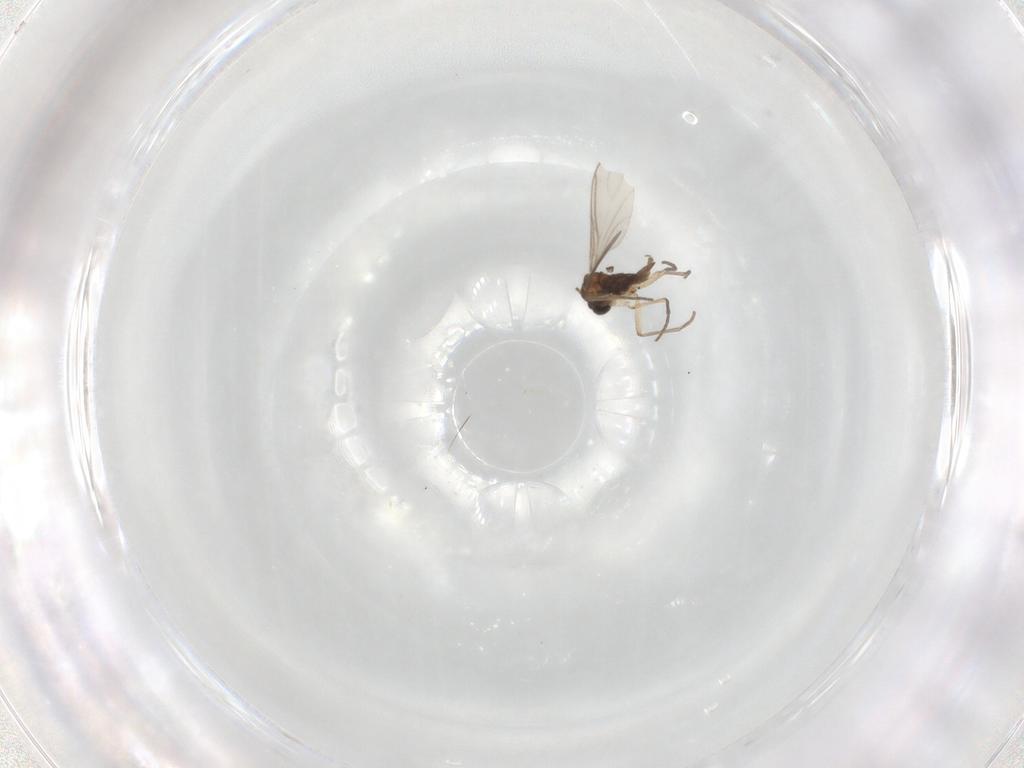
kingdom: Animalia
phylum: Arthropoda
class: Insecta
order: Diptera
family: Sciaridae
